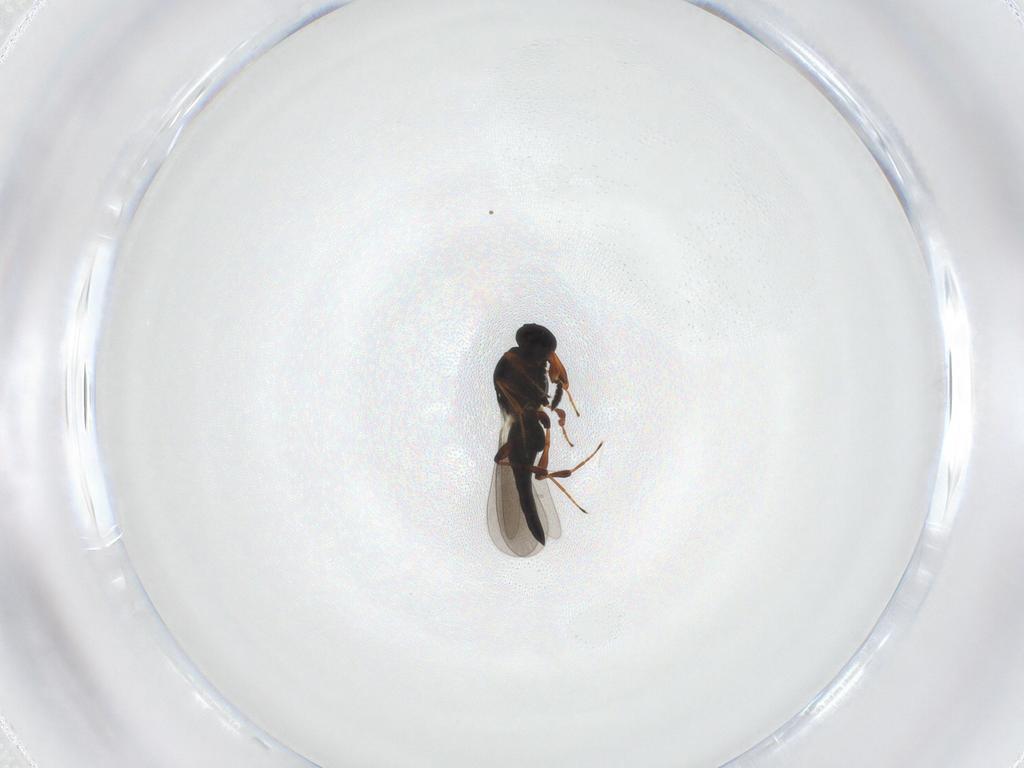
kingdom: Animalia
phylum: Arthropoda
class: Insecta
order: Hymenoptera
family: Platygastridae
